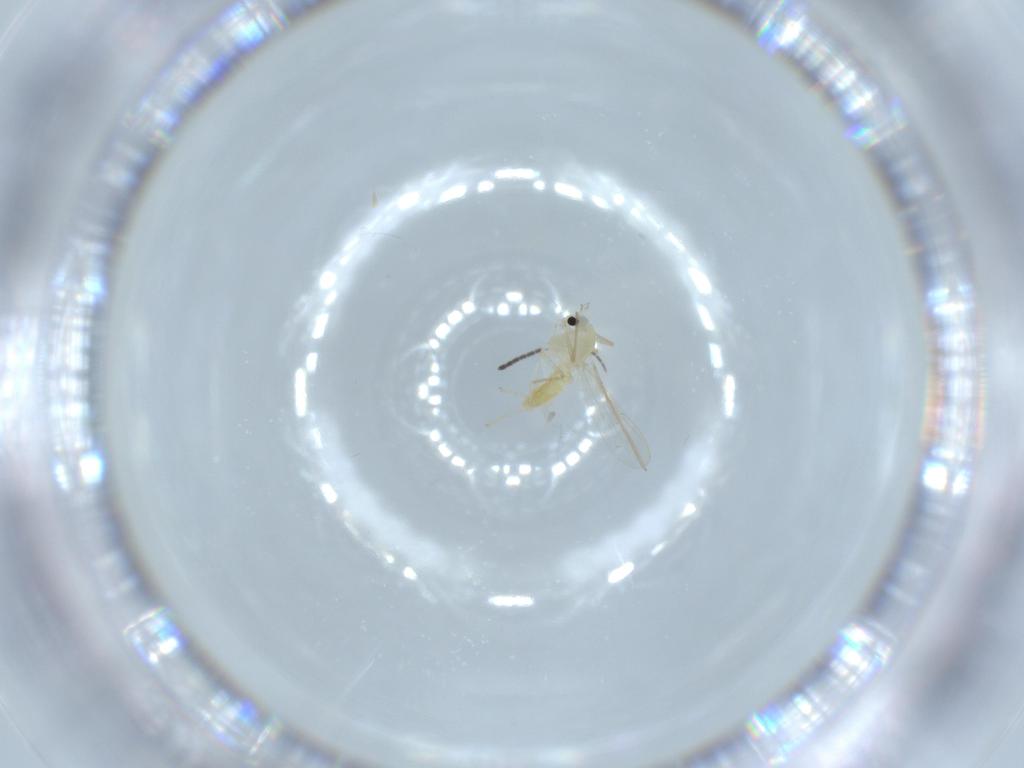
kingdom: Animalia
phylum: Arthropoda
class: Insecta
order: Diptera
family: Chironomidae
